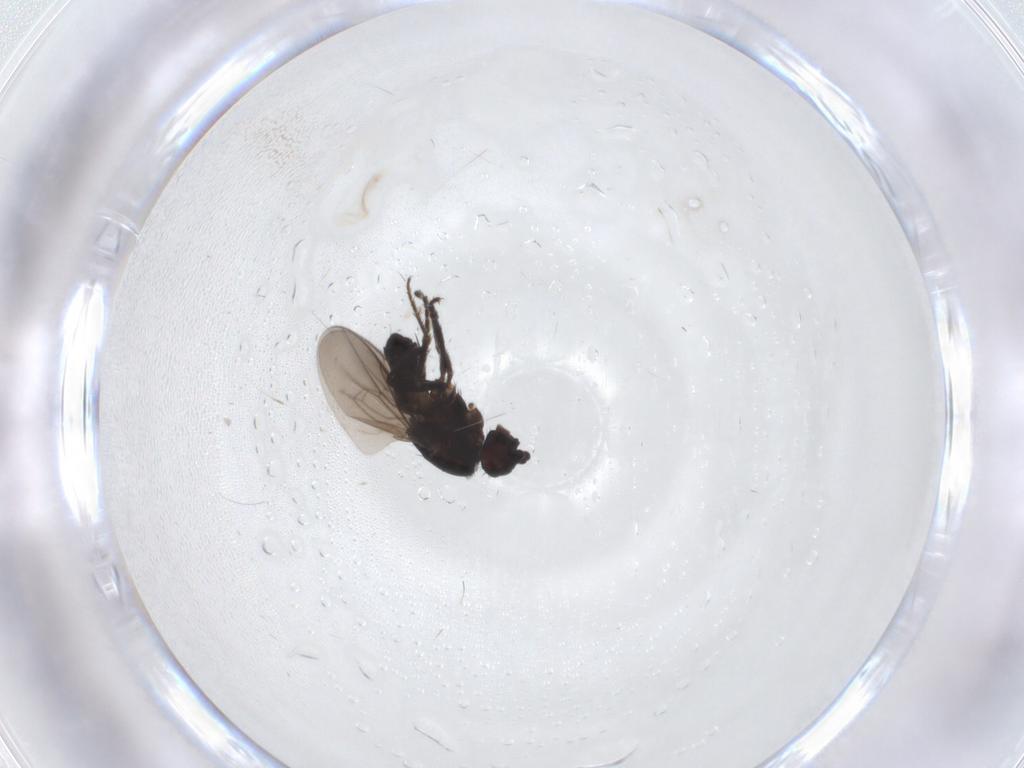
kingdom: Animalia
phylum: Arthropoda
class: Insecta
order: Diptera
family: Sphaeroceridae
